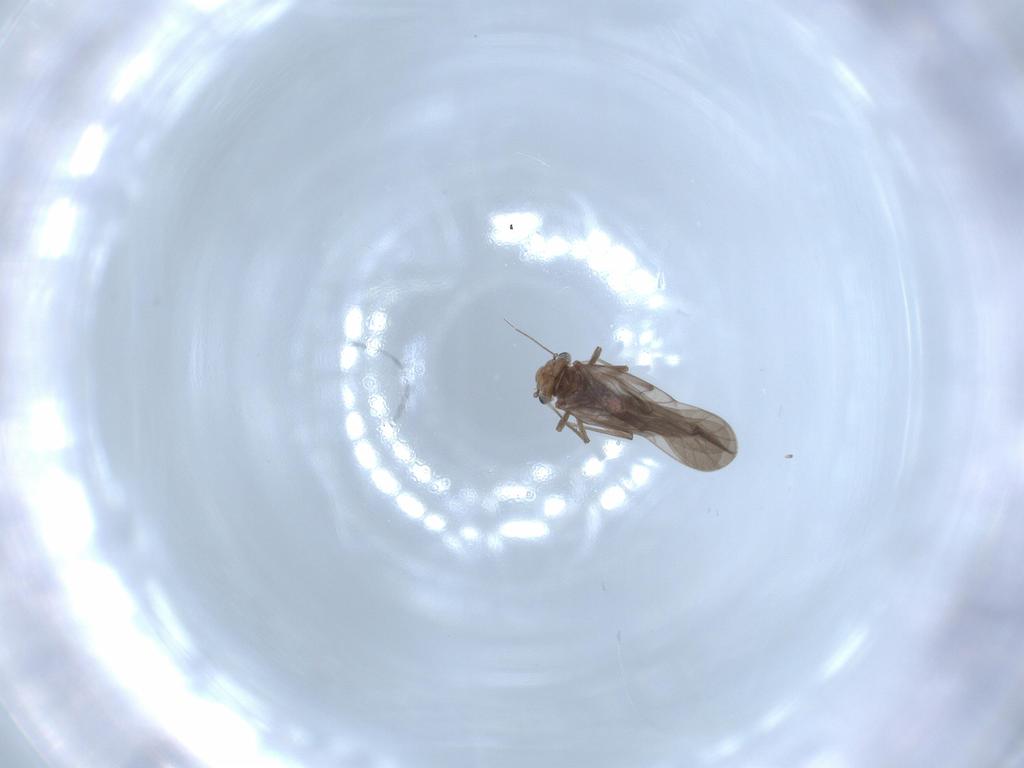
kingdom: Animalia
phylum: Arthropoda
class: Insecta
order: Psocodea
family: Lepidopsocidae
